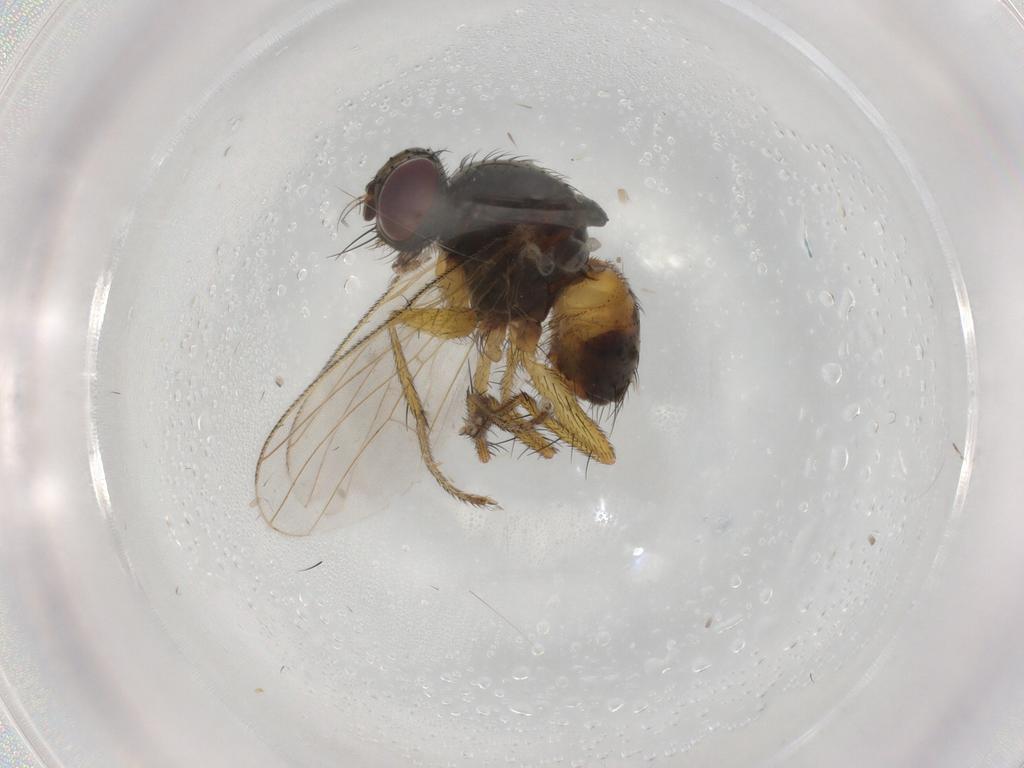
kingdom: Animalia
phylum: Arthropoda
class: Insecta
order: Diptera
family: Muscidae
